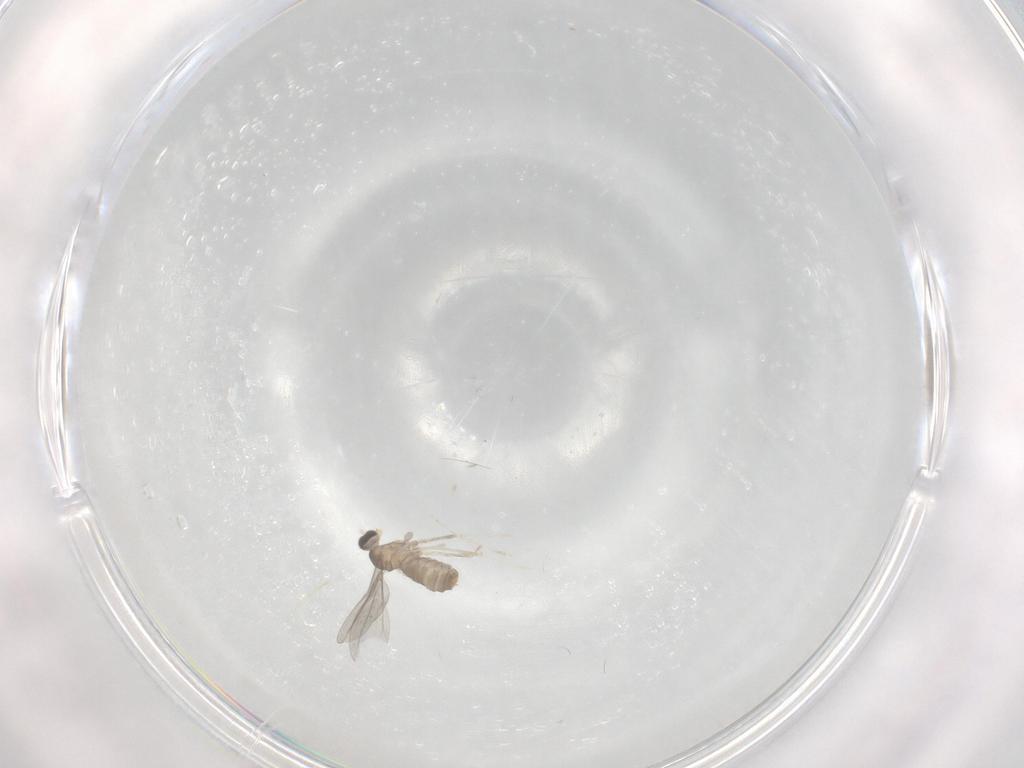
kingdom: Animalia
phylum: Arthropoda
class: Insecta
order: Diptera
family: Cecidomyiidae
